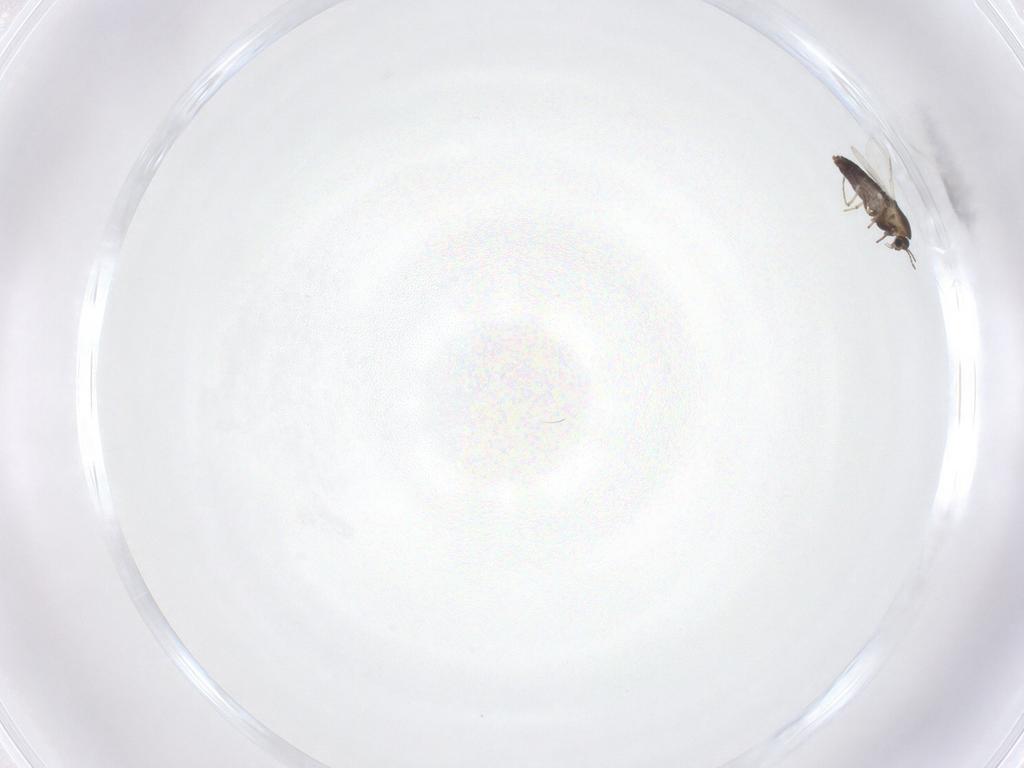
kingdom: Animalia
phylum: Arthropoda
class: Insecta
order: Diptera
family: Chironomidae
